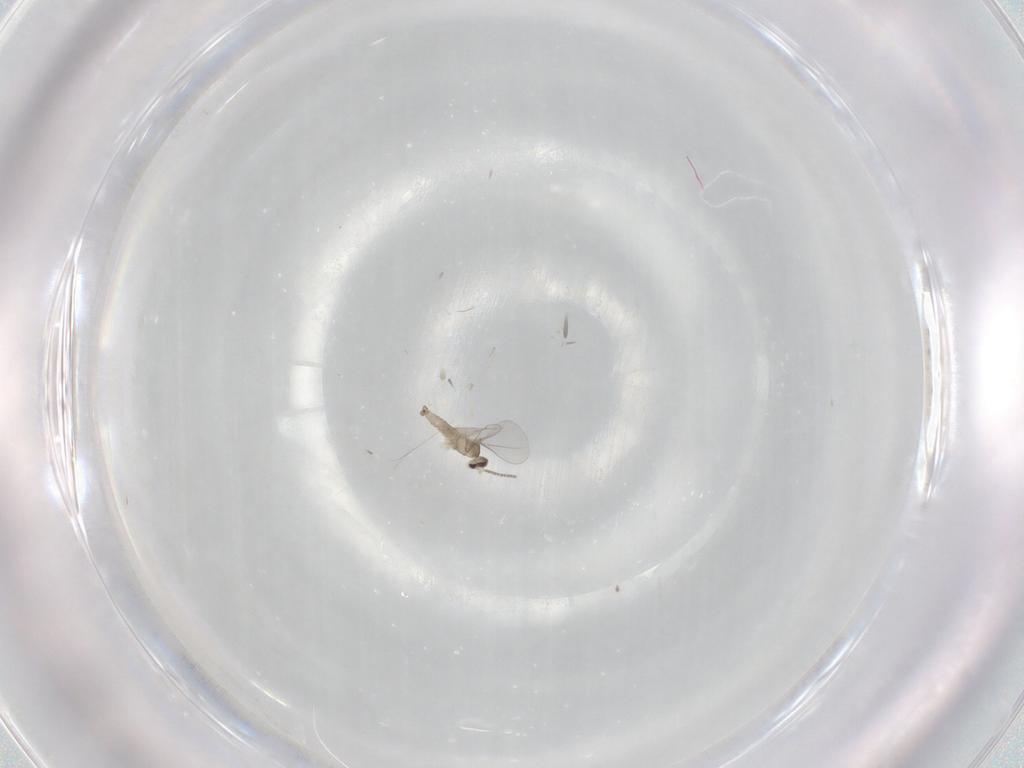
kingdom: Animalia
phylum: Arthropoda
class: Insecta
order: Diptera
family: Cecidomyiidae
